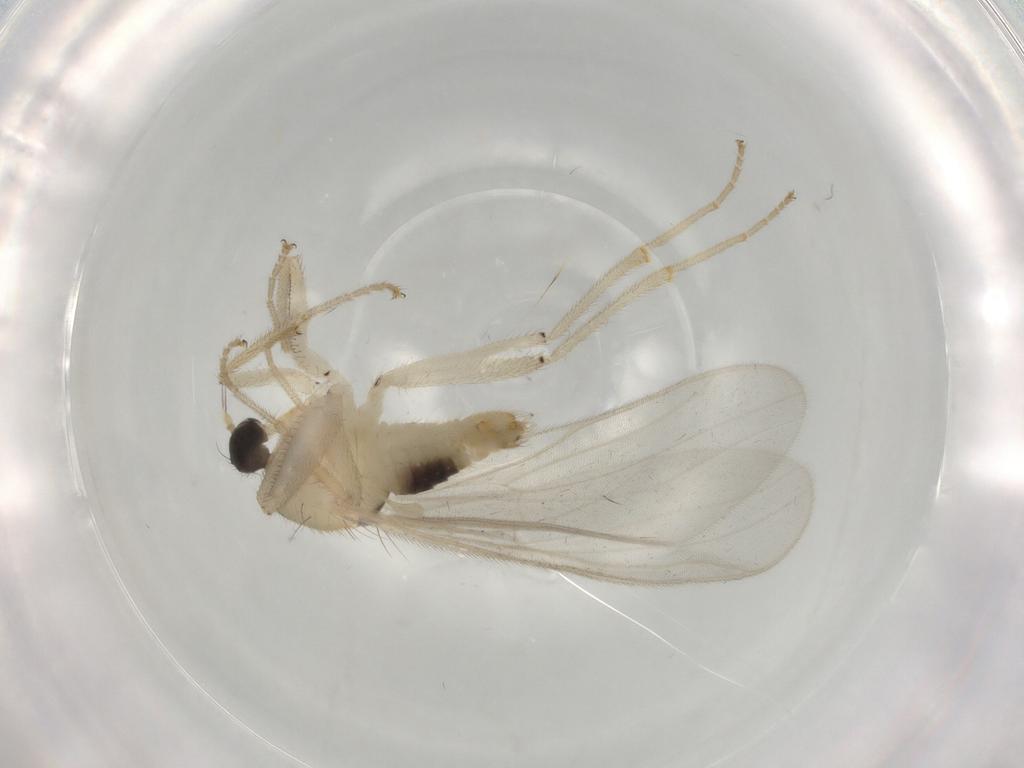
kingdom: Animalia
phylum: Arthropoda
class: Insecta
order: Diptera
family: Hybotidae
